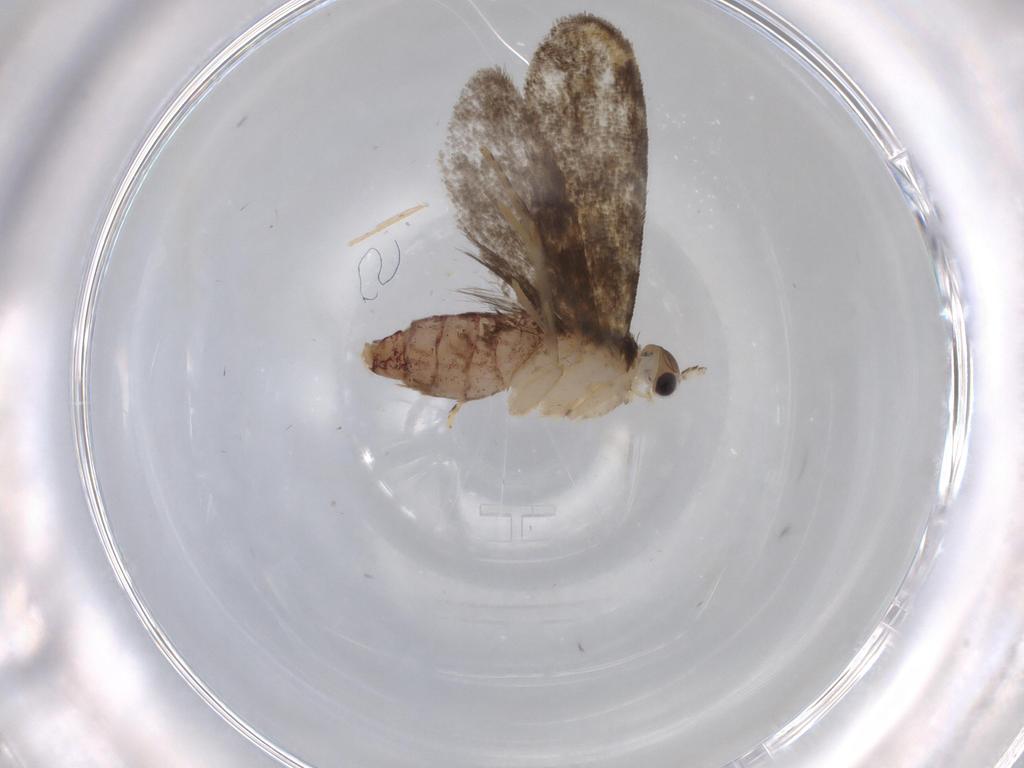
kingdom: Animalia
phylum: Arthropoda
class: Insecta
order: Lepidoptera
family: Tineidae
